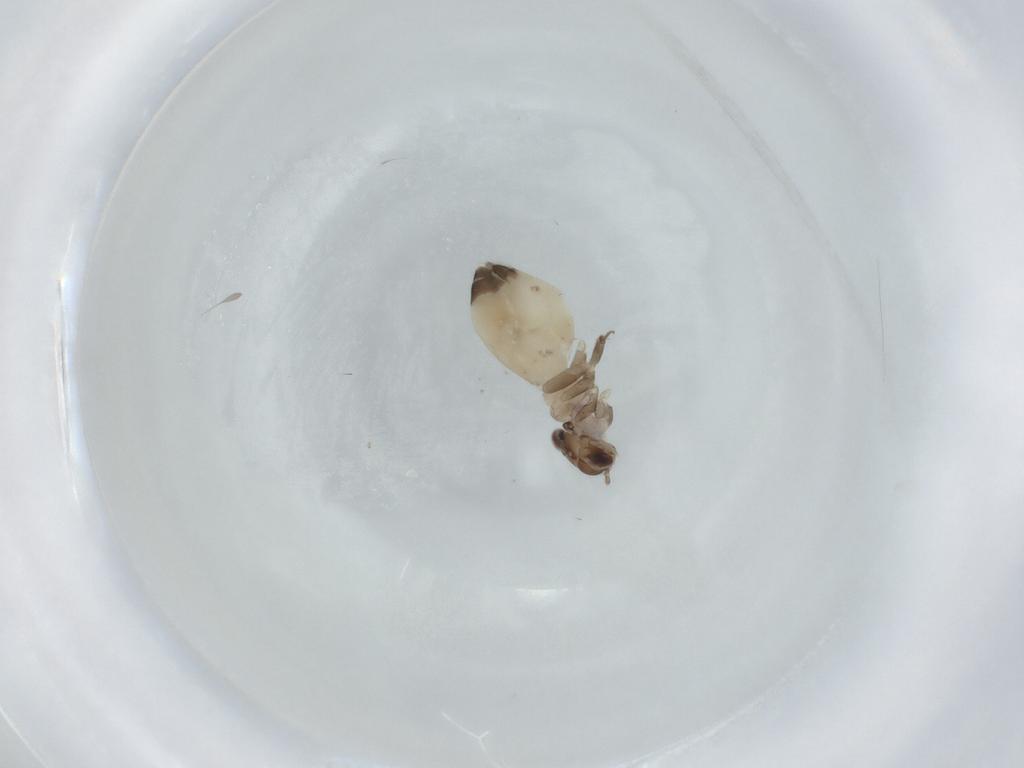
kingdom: Animalia
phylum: Arthropoda
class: Insecta
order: Psocodea
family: Lepidopsocidae
